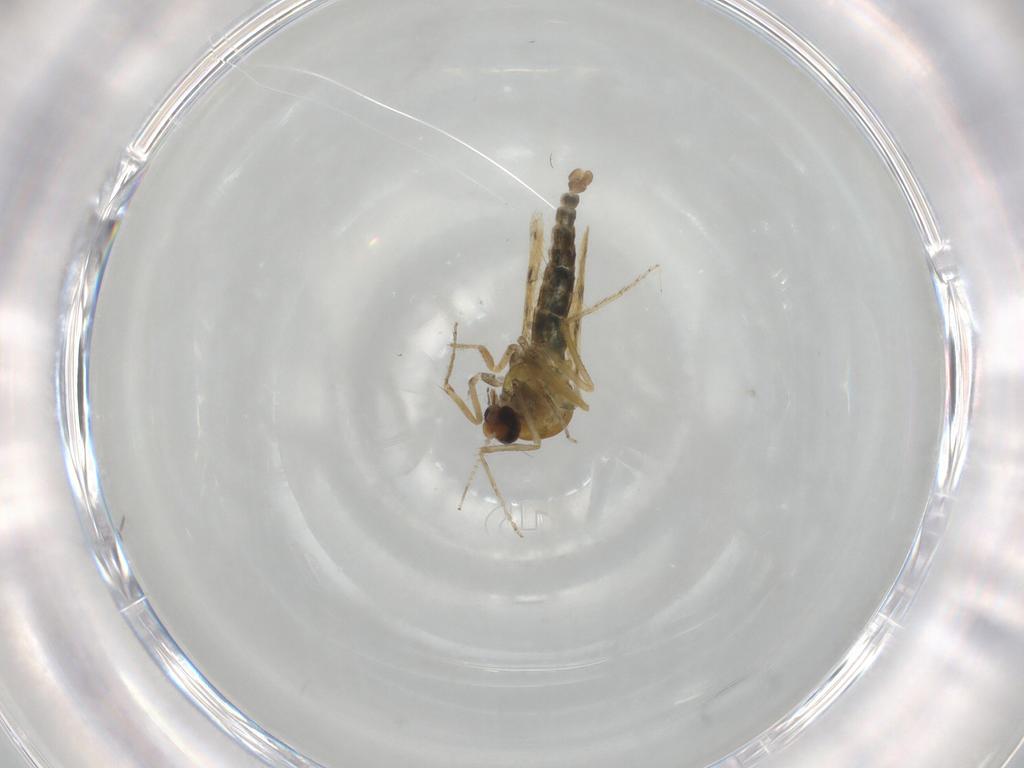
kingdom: Animalia
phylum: Arthropoda
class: Insecta
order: Diptera
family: Ceratopogonidae
